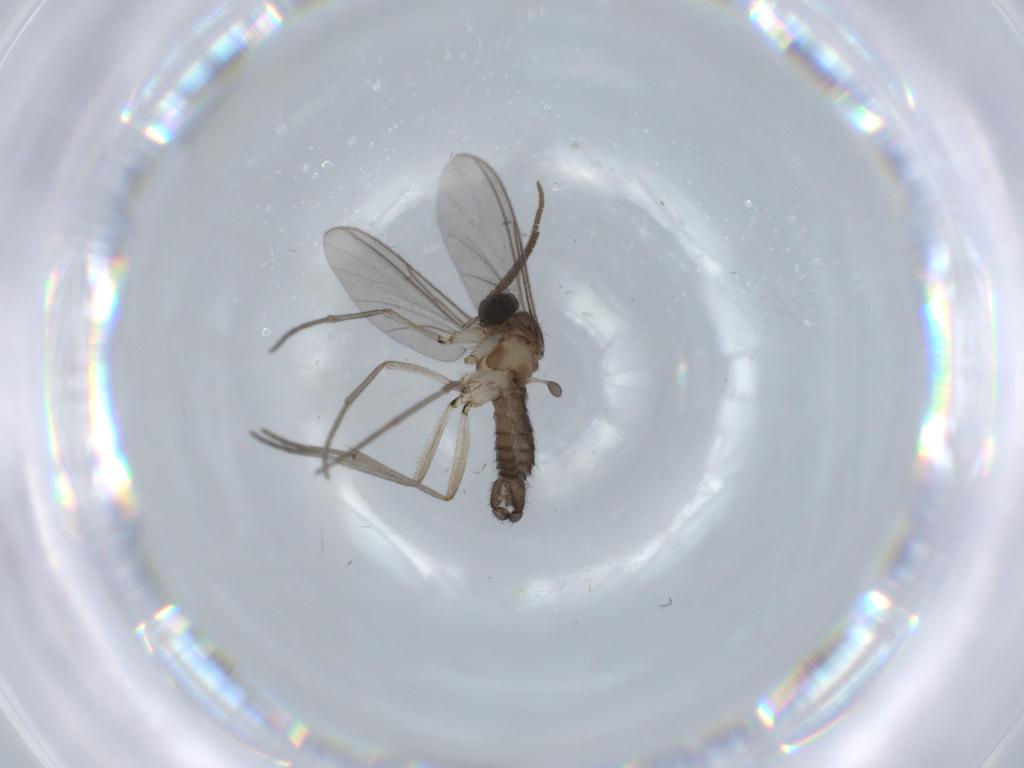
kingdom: Animalia
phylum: Arthropoda
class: Insecta
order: Diptera
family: Sciaridae
